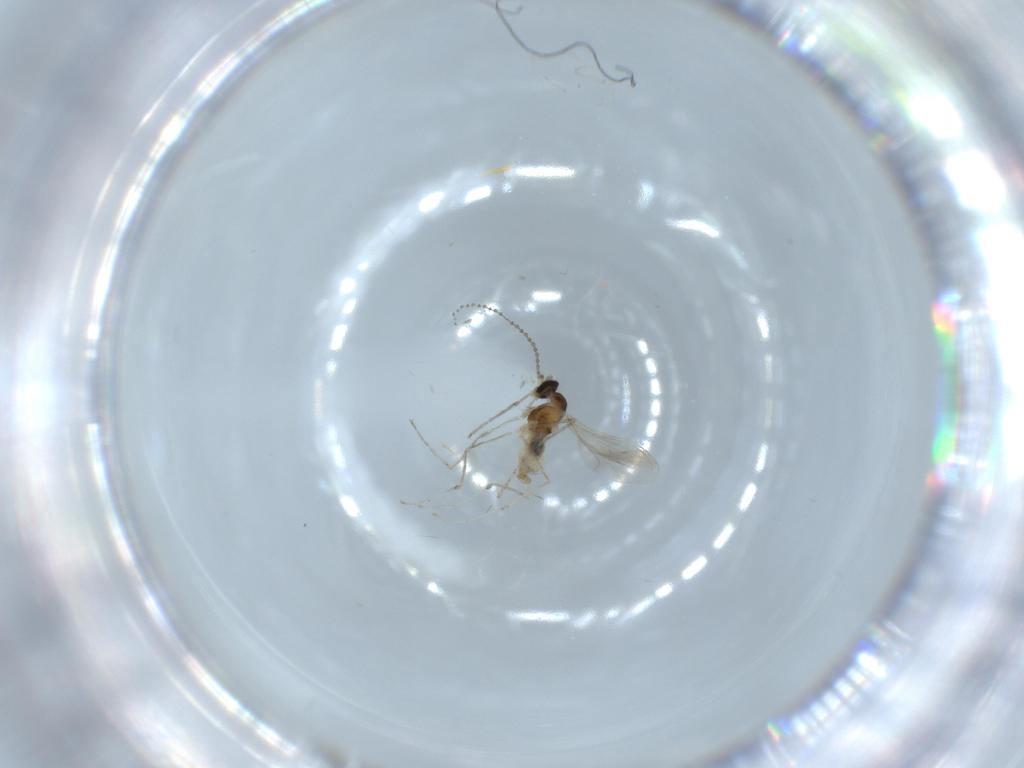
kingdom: Animalia
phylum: Arthropoda
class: Insecta
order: Diptera
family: Cecidomyiidae
